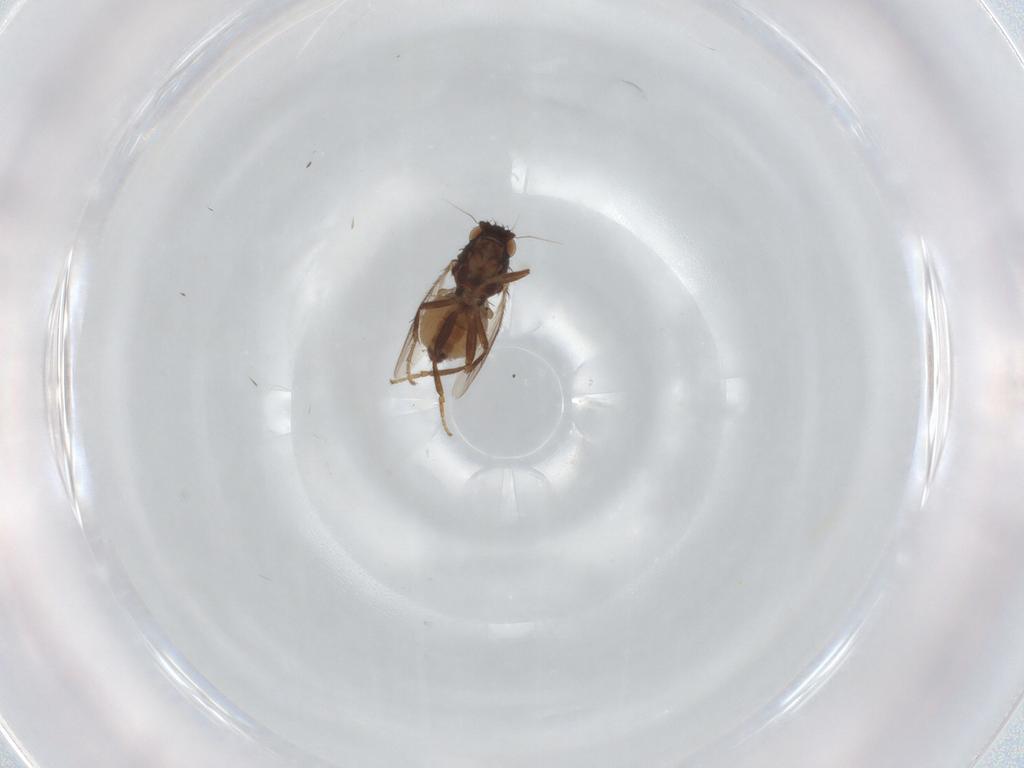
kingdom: Animalia
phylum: Arthropoda
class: Insecta
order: Diptera
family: Sphaeroceridae
